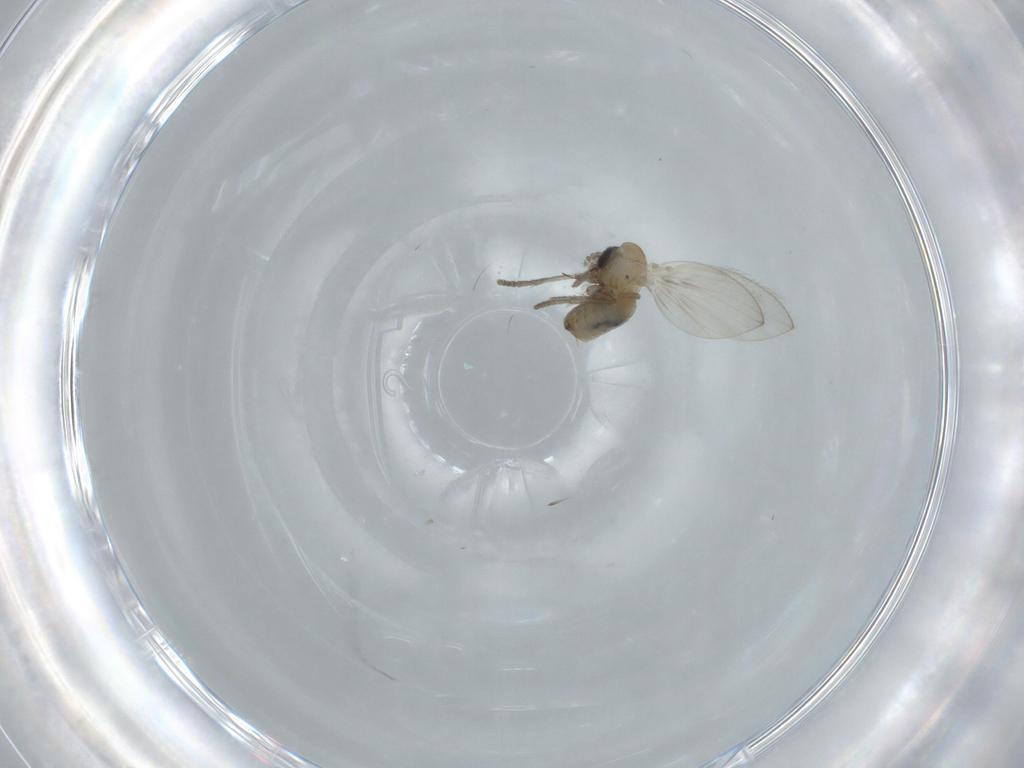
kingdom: Animalia
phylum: Arthropoda
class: Insecta
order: Diptera
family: Psychodidae
